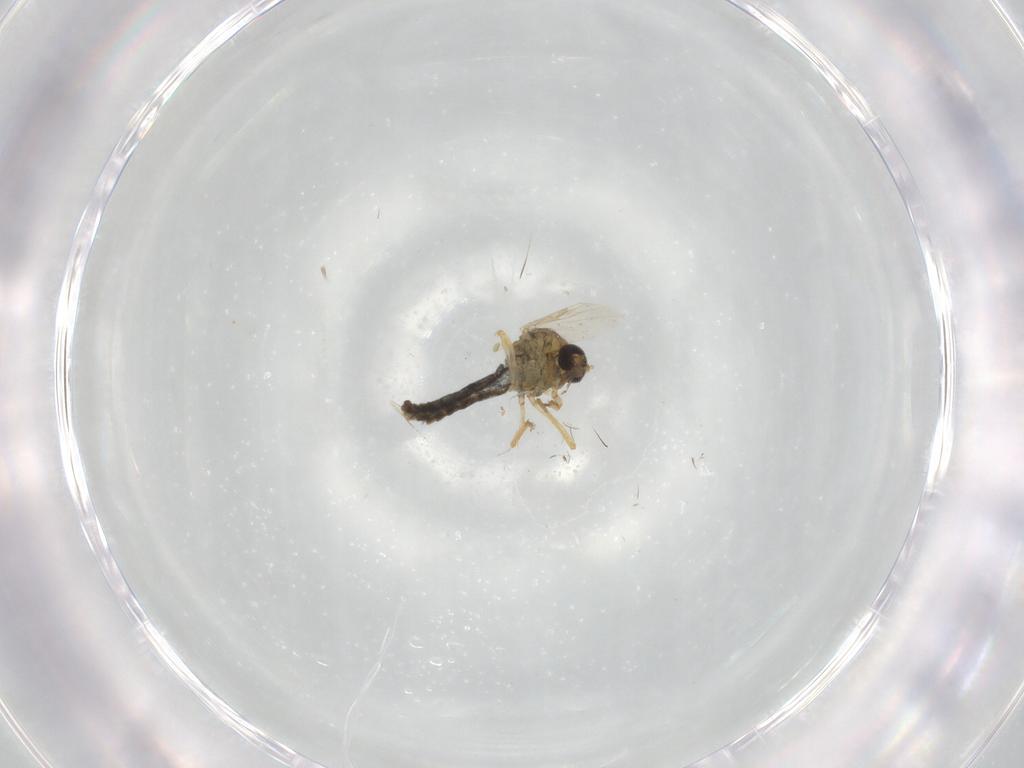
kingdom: Animalia
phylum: Arthropoda
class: Insecta
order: Diptera
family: Ceratopogonidae
